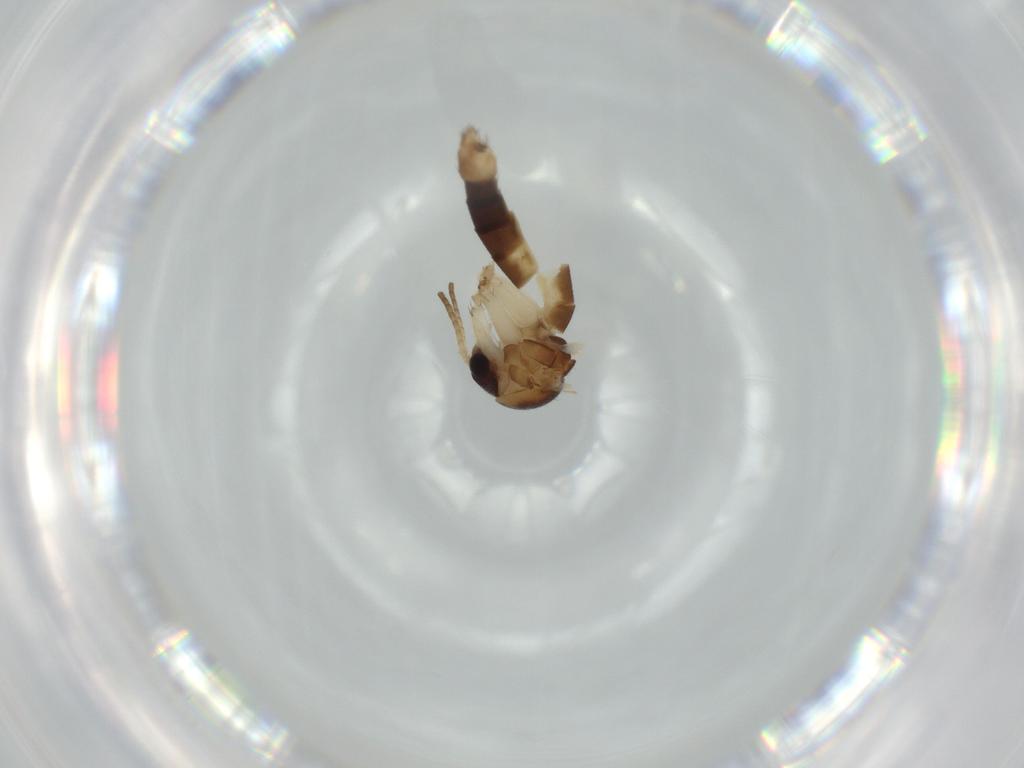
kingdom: Animalia
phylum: Arthropoda
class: Insecta
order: Diptera
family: Mycetophilidae
